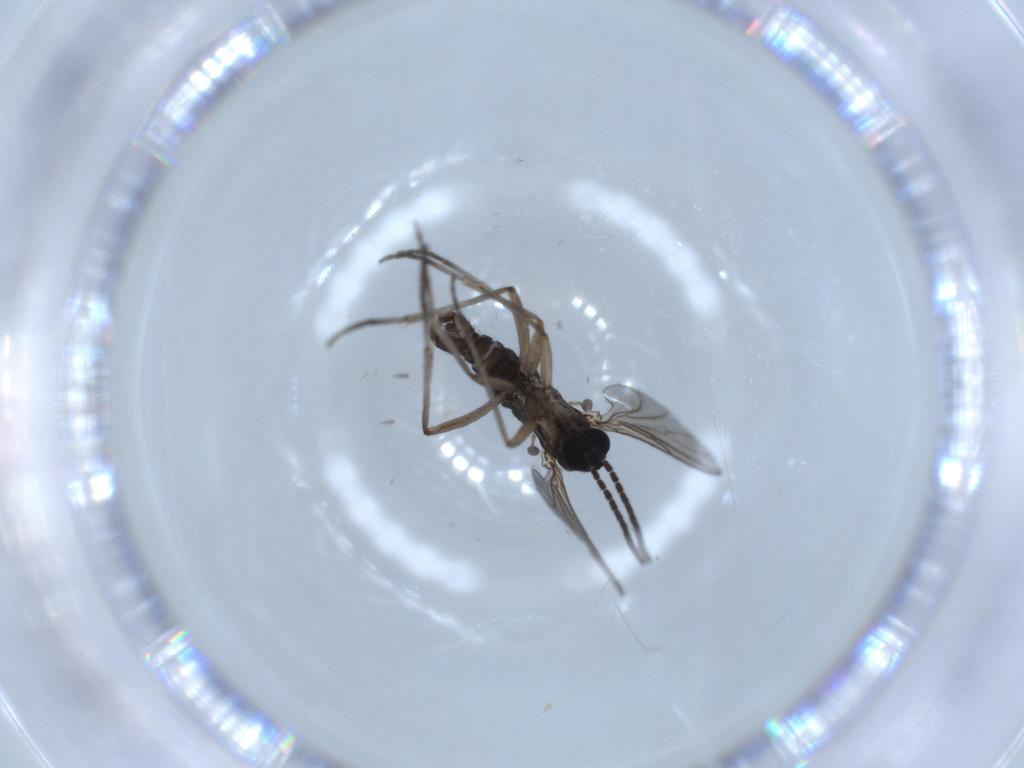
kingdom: Animalia
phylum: Arthropoda
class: Insecta
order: Diptera
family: Sciaridae
